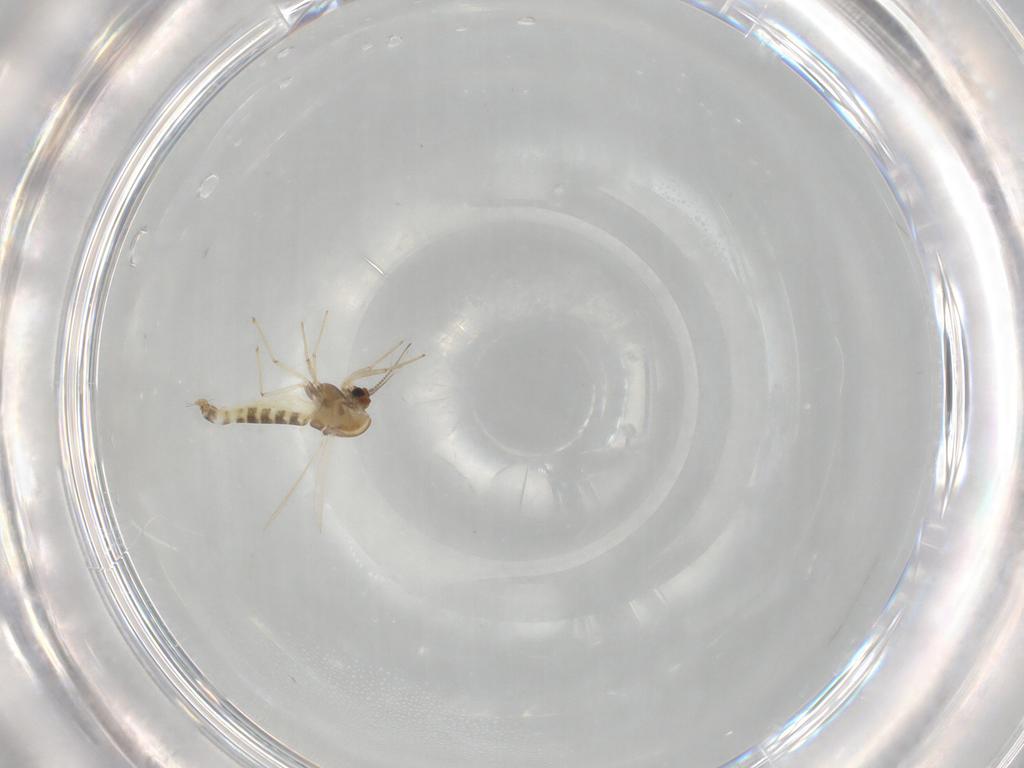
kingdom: Animalia
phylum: Arthropoda
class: Insecta
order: Diptera
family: Chironomidae
